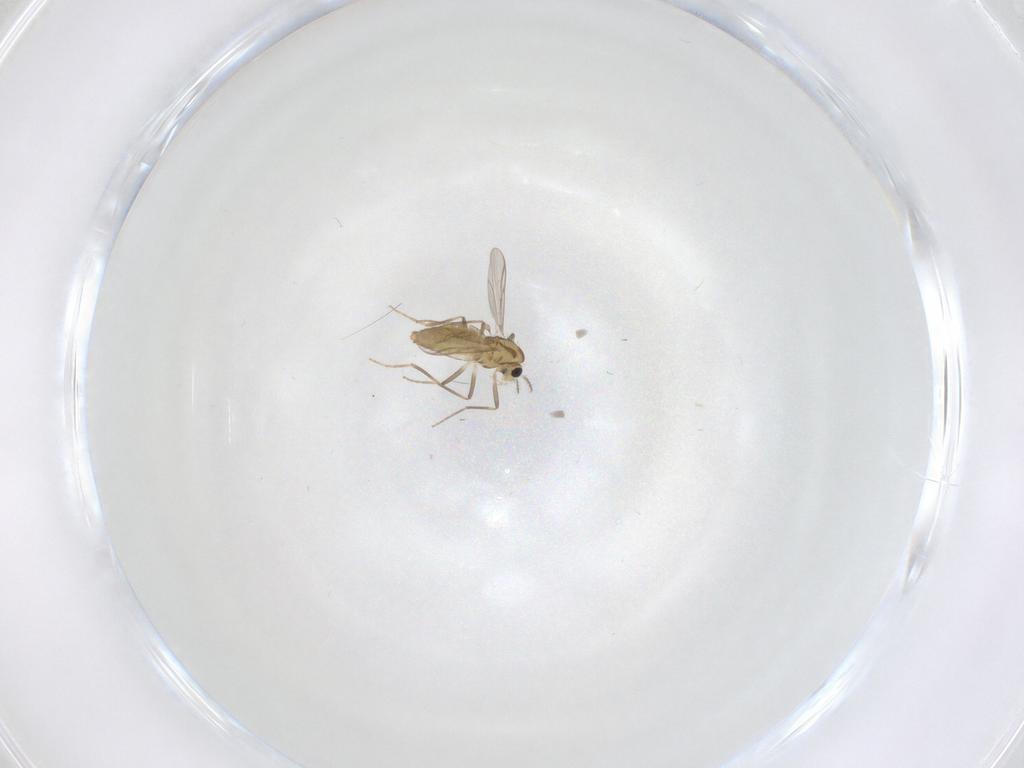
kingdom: Animalia
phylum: Arthropoda
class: Insecta
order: Diptera
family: Chironomidae
